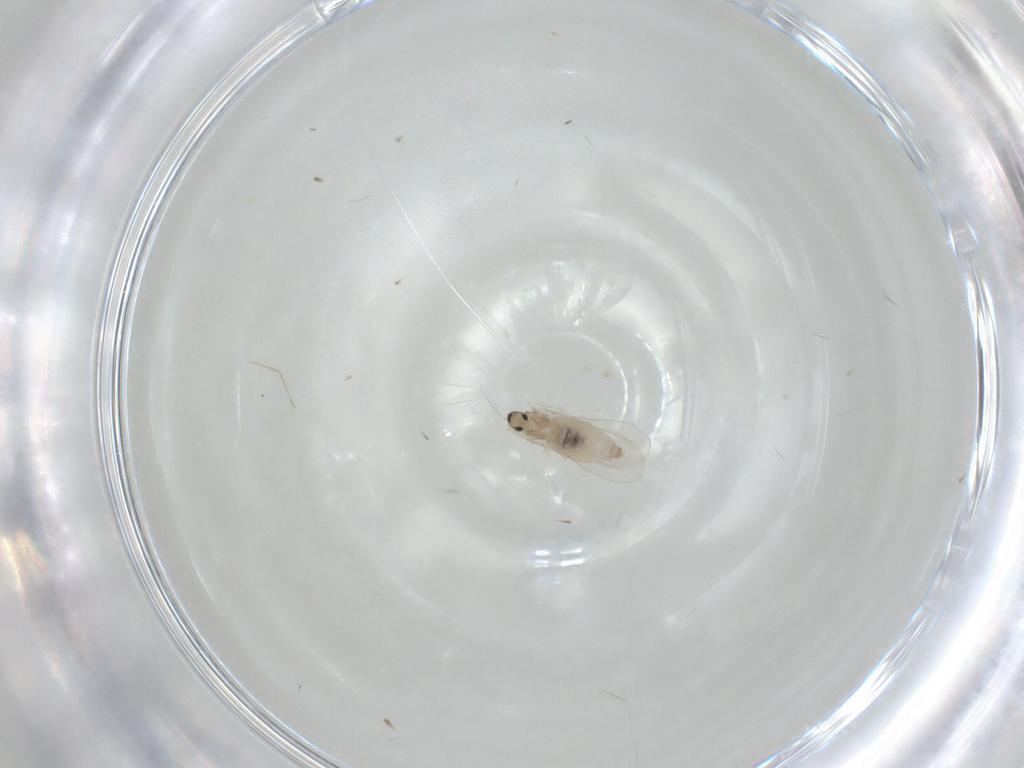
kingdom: Animalia
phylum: Arthropoda
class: Insecta
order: Diptera
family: Cecidomyiidae
